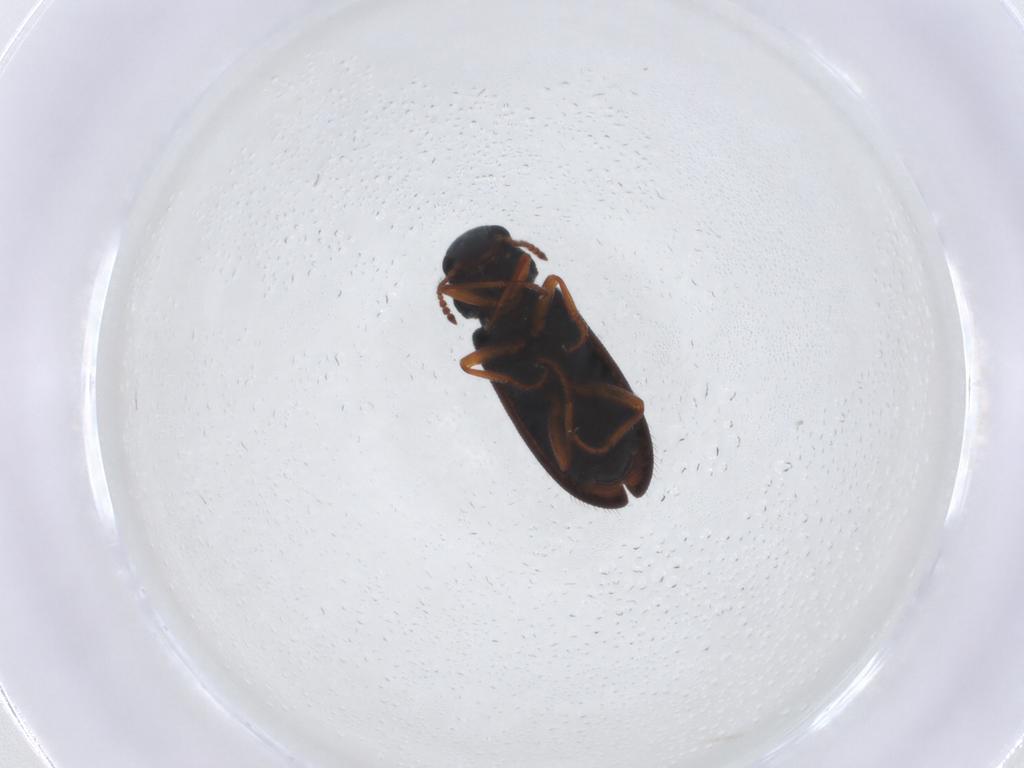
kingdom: Animalia
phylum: Arthropoda
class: Insecta
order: Coleoptera
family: Melyridae
